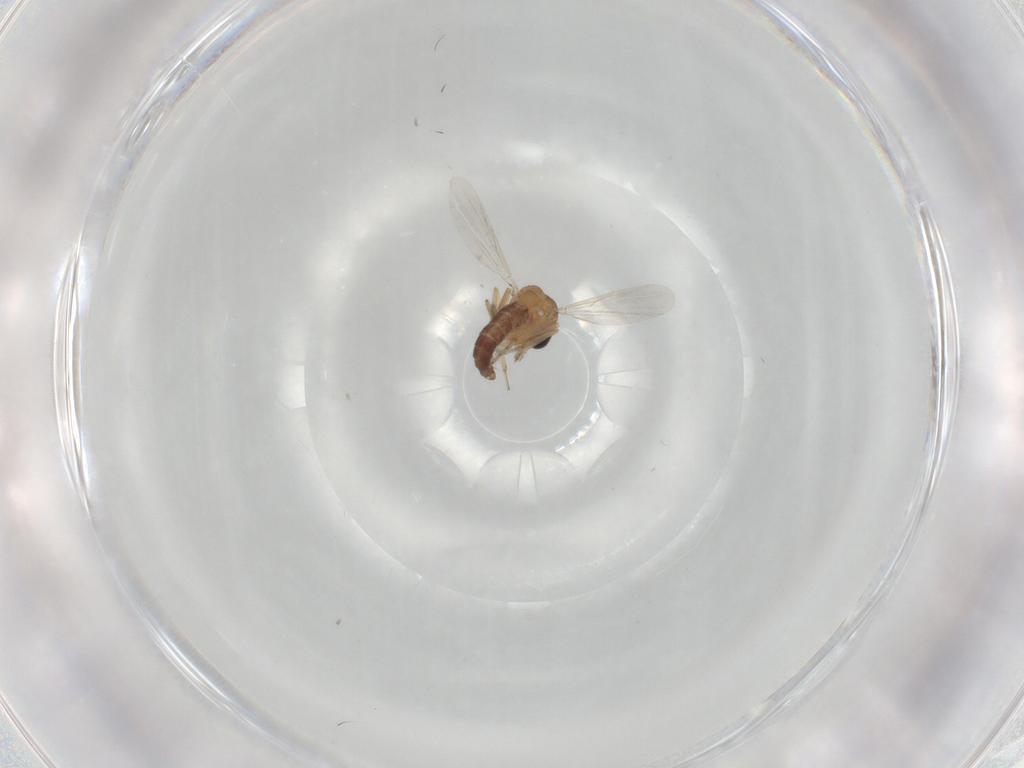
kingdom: Animalia
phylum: Arthropoda
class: Insecta
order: Diptera
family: Ceratopogonidae
